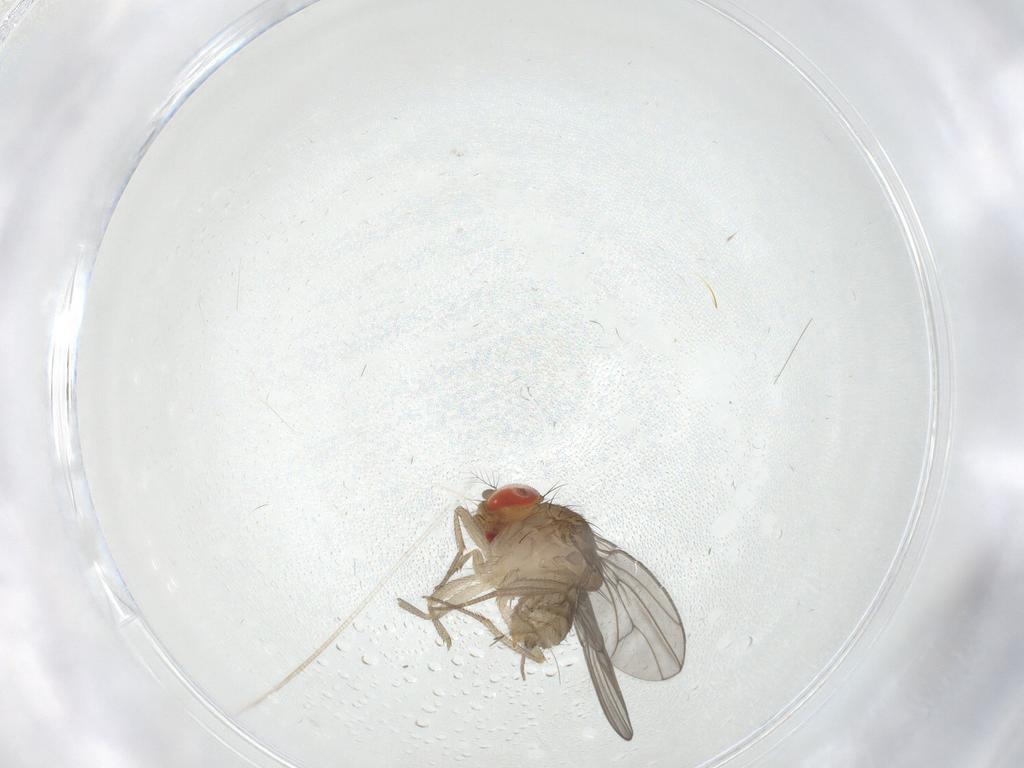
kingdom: Animalia
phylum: Arthropoda
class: Insecta
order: Diptera
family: Drosophilidae
